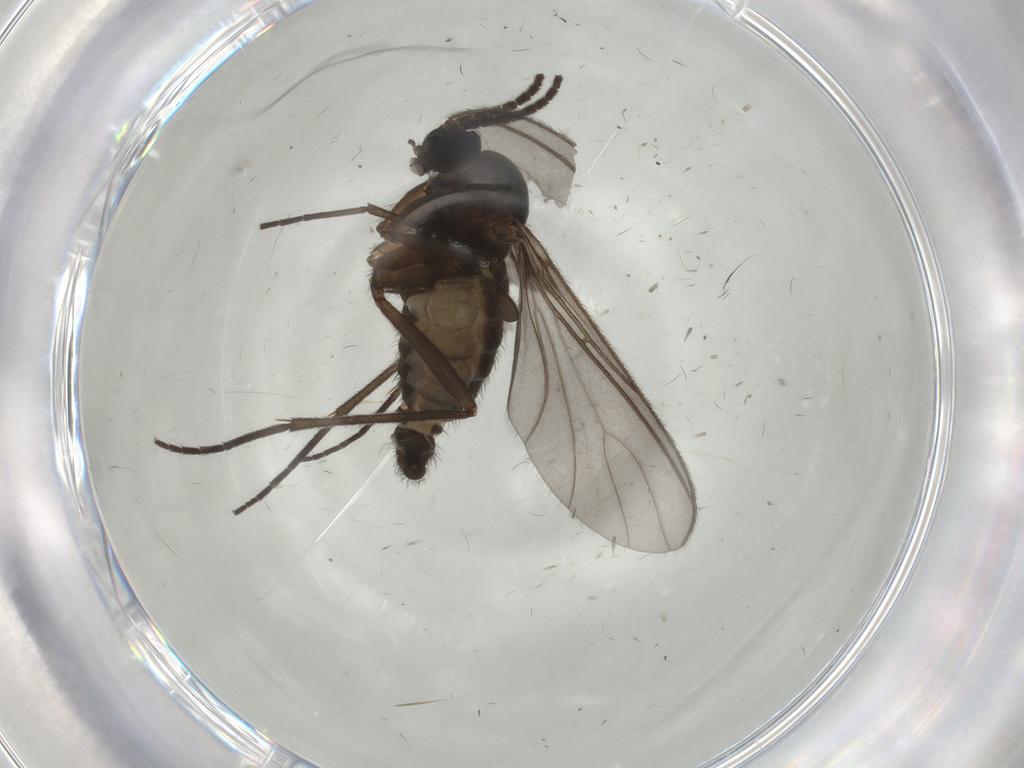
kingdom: Animalia
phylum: Arthropoda
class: Insecta
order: Diptera
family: Sciaridae
